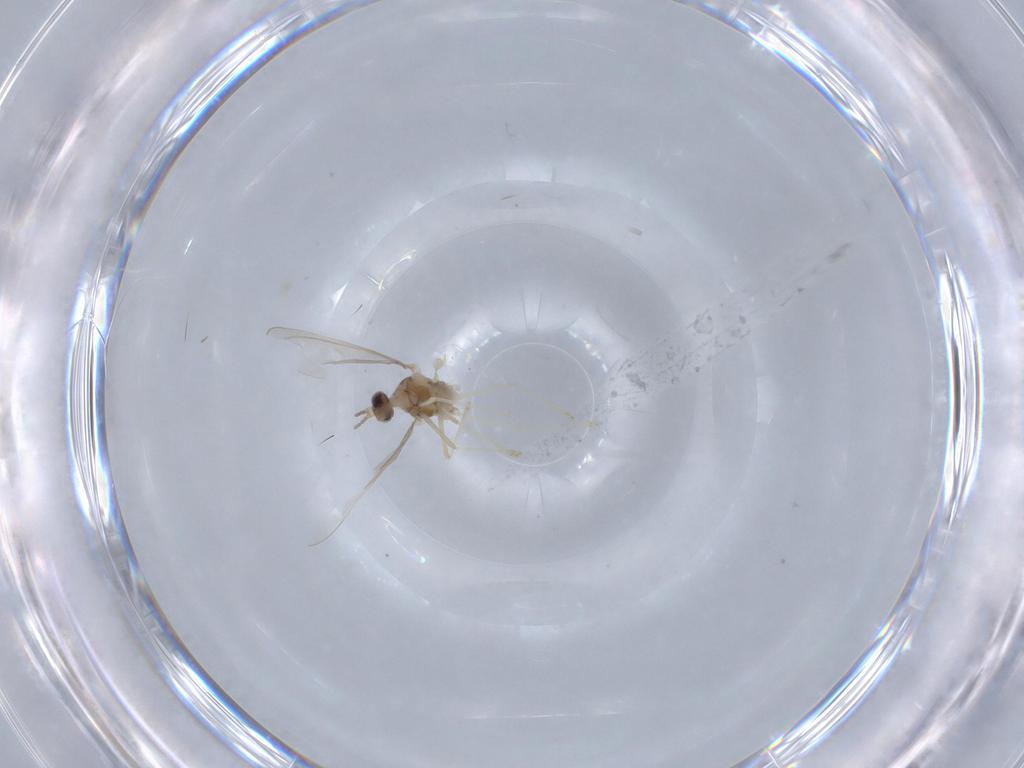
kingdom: Animalia
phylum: Arthropoda
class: Insecta
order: Diptera
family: Cecidomyiidae
